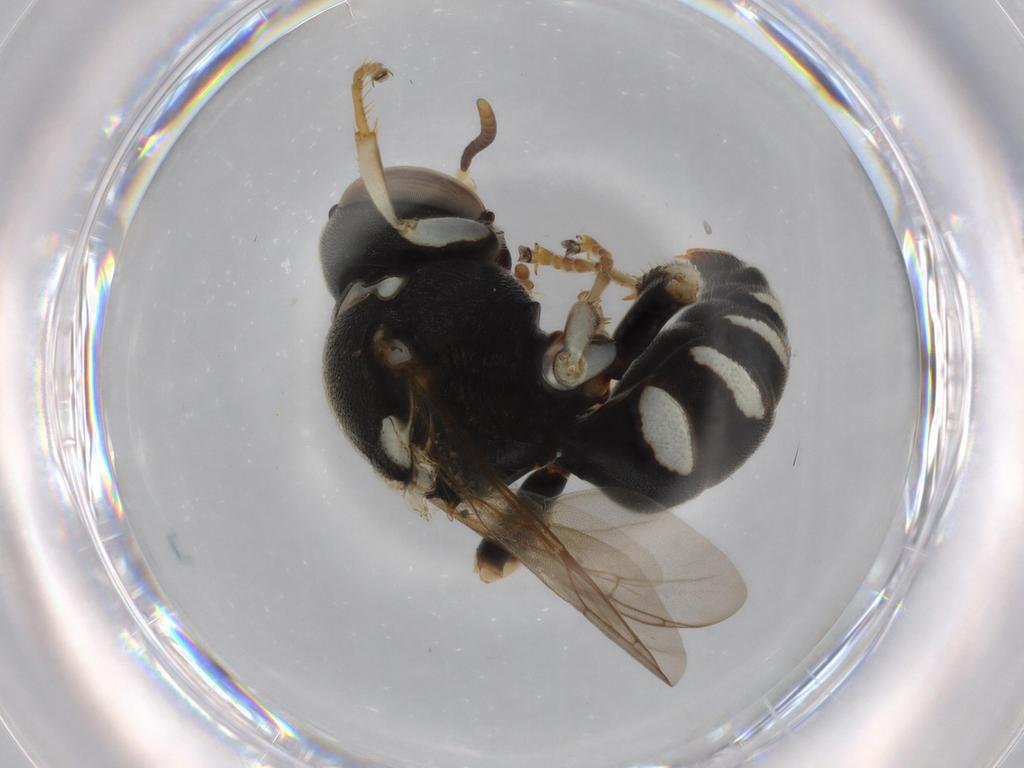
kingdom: Animalia
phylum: Arthropoda
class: Insecta
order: Hymenoptera
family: Scelionidae
